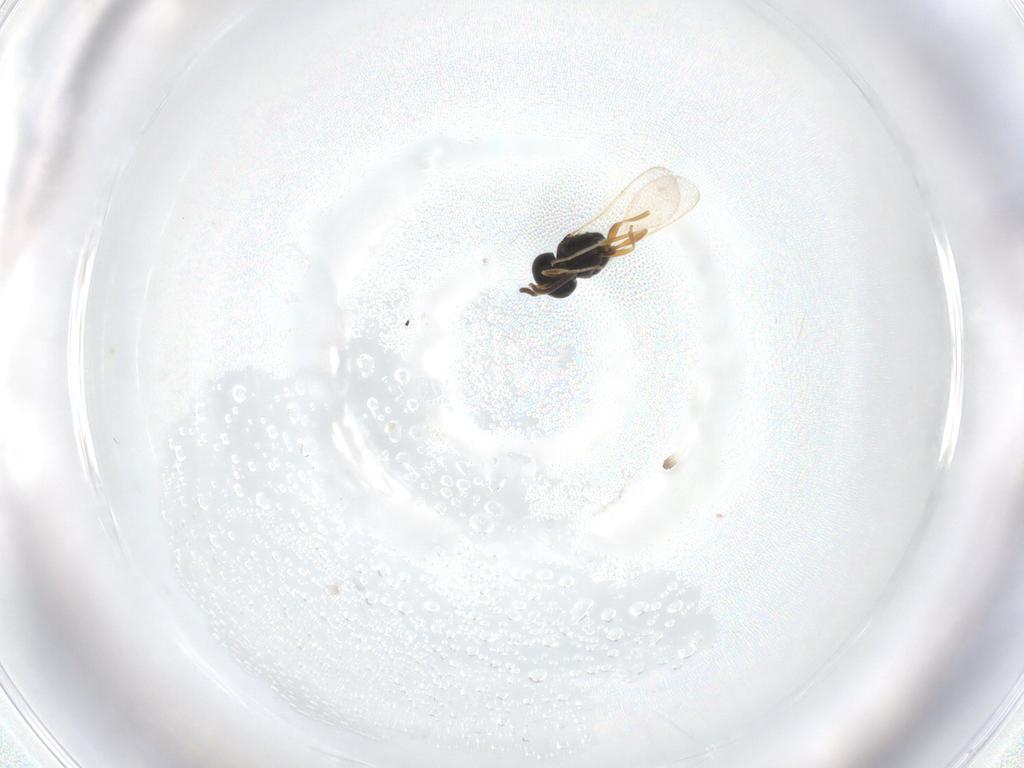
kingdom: Animalia
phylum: Arthropoda
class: Insecta
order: Hymenoptera
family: Scelionidae
